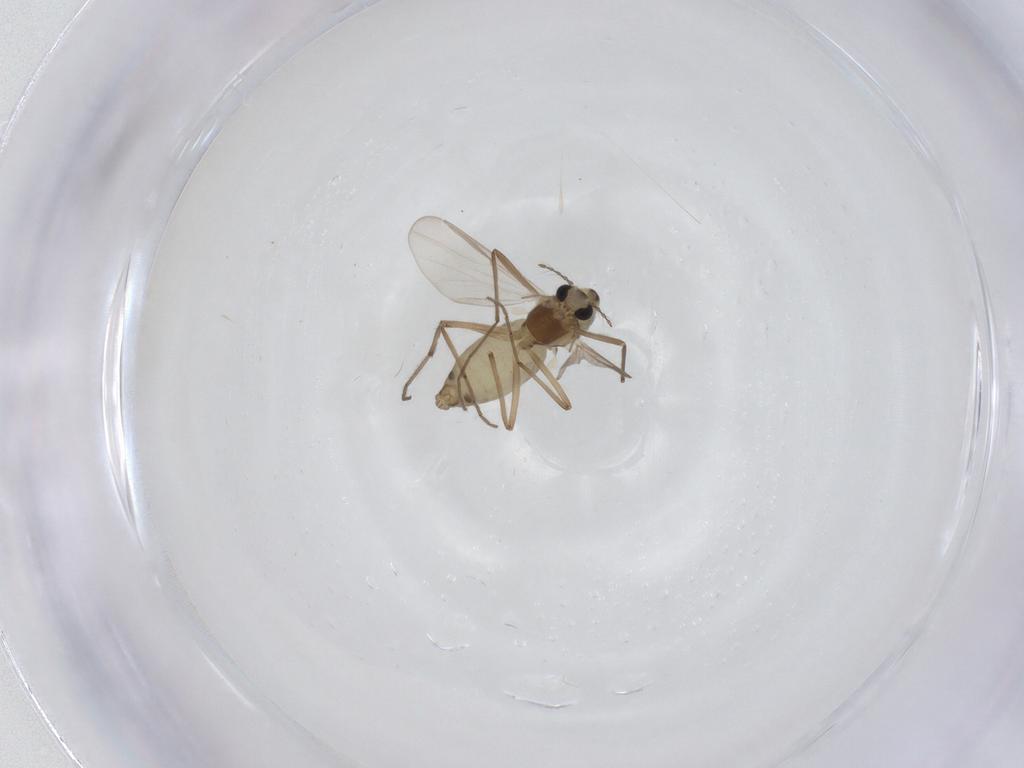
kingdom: Animalia
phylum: Arthropoda
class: Insecta
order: Diptera
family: Chironomidae
